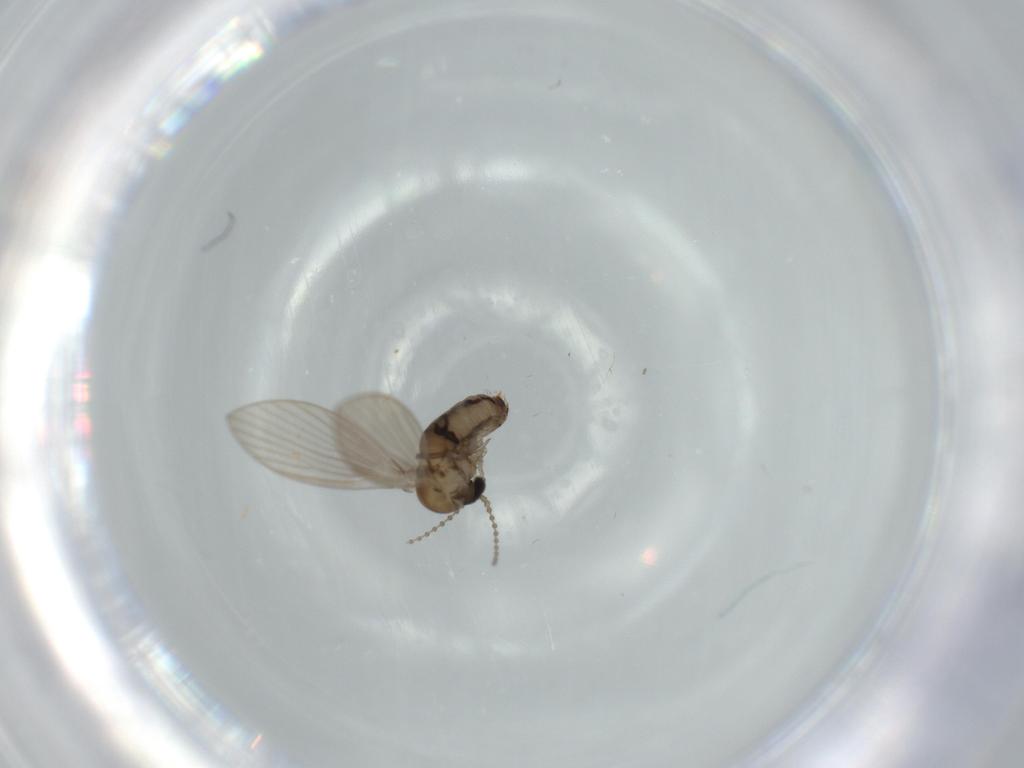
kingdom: Animalia
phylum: Arthropoda
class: Insecta
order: Diptera
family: Psychodidae
